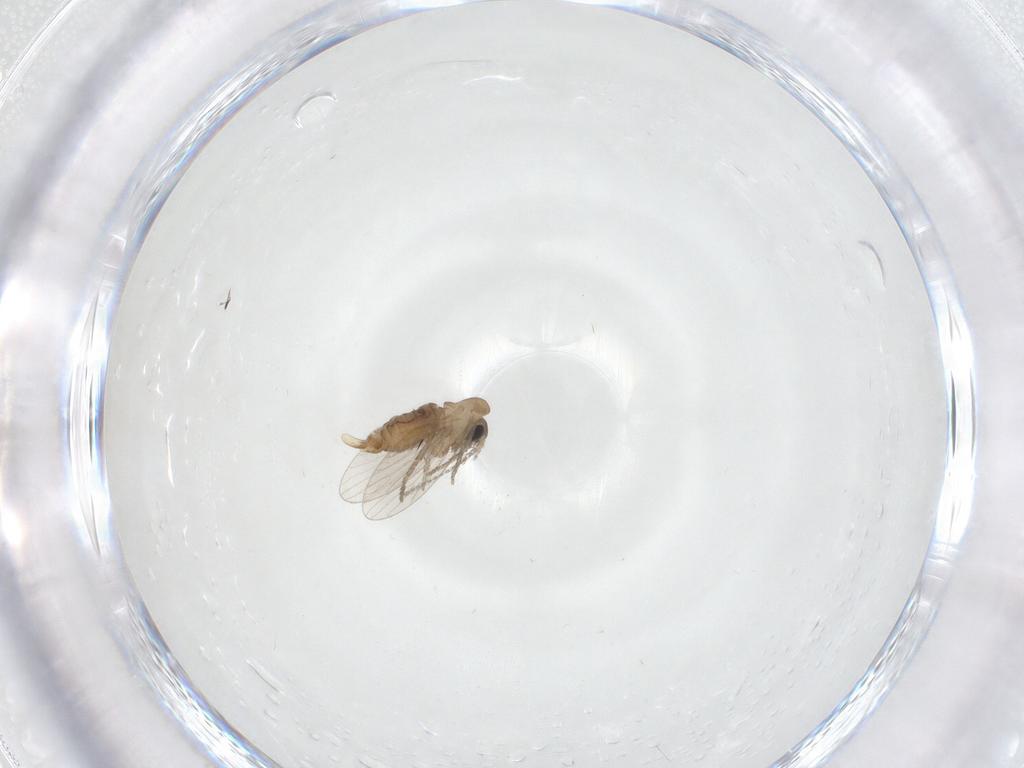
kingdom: Animalia
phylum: Arthropoda
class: Insecta
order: Diptera
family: Psychodidae
